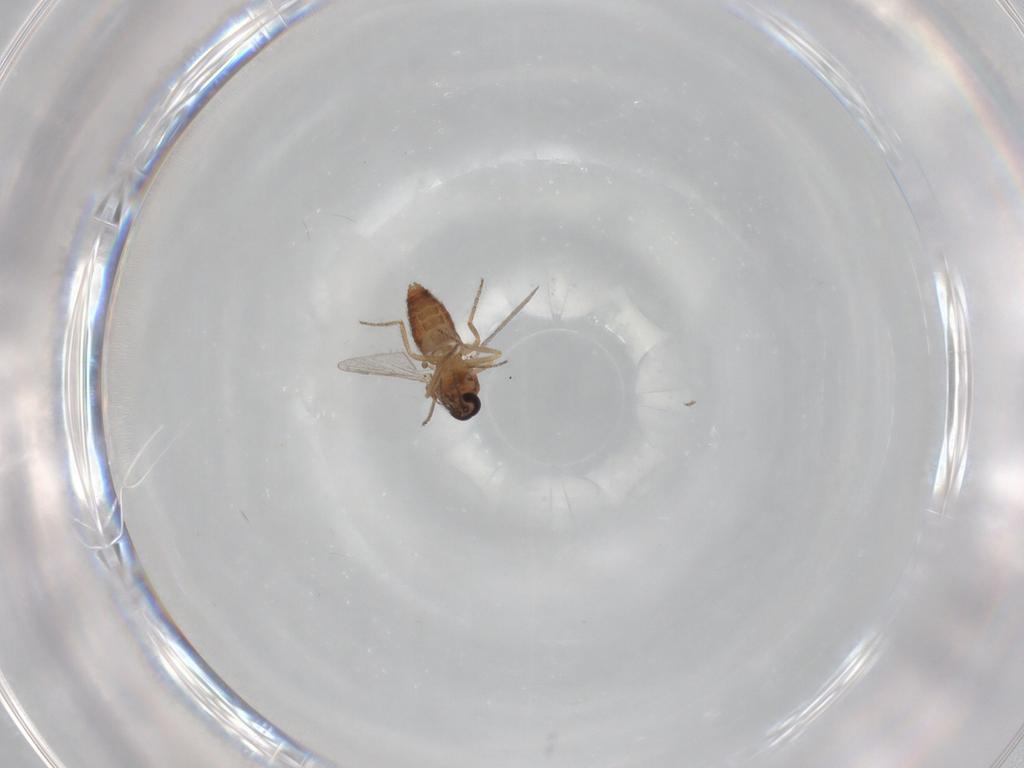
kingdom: Animalia
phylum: Arthropoda
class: Insecta
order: Diptera
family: Ceratopogonidae
